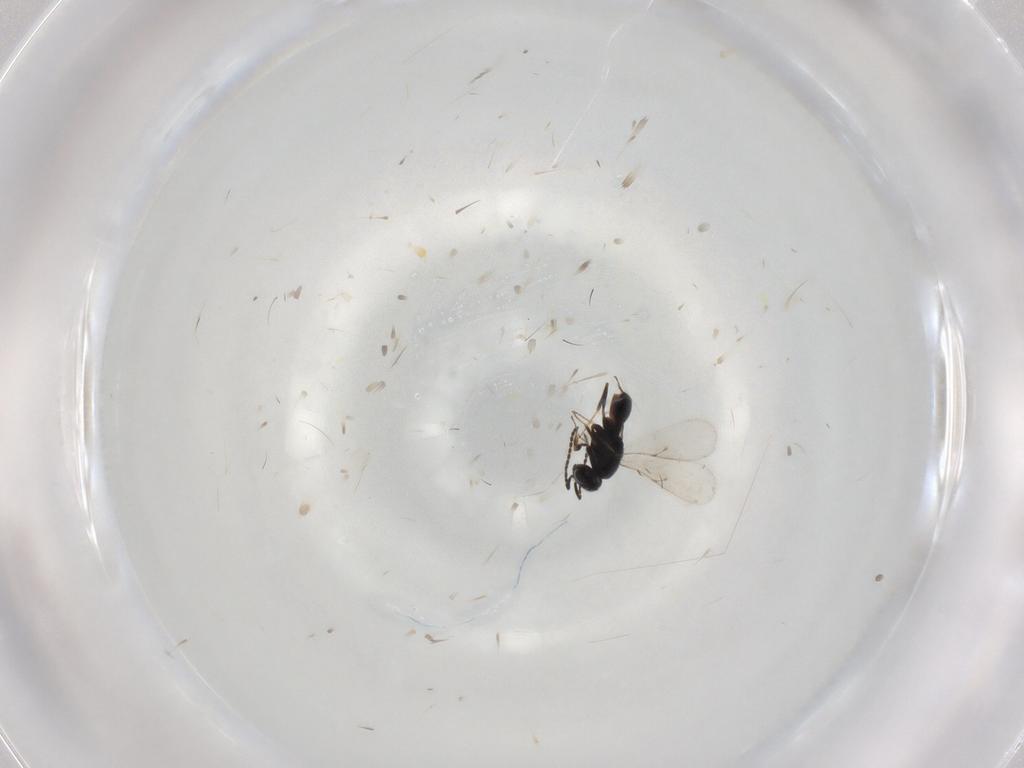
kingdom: Animalia
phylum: Arthropoda
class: Insecta
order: Hymenoptera
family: Scelionidae
